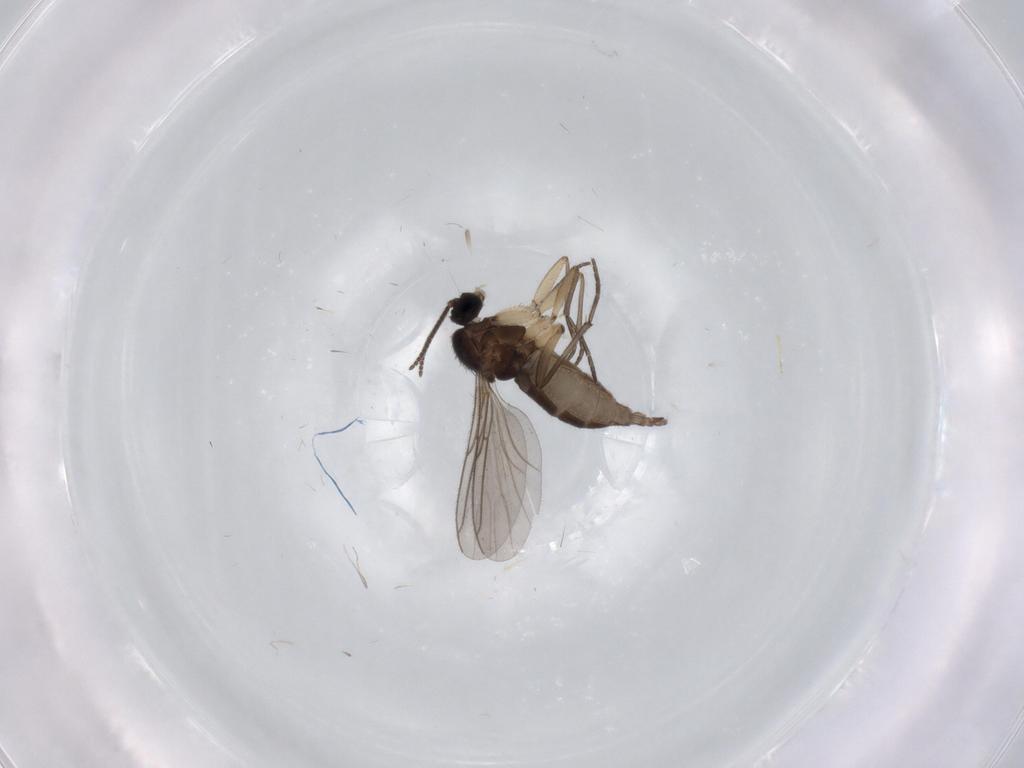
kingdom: Animalia
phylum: Arthropoda
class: Insecta
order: Diptera
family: Sciaridae
